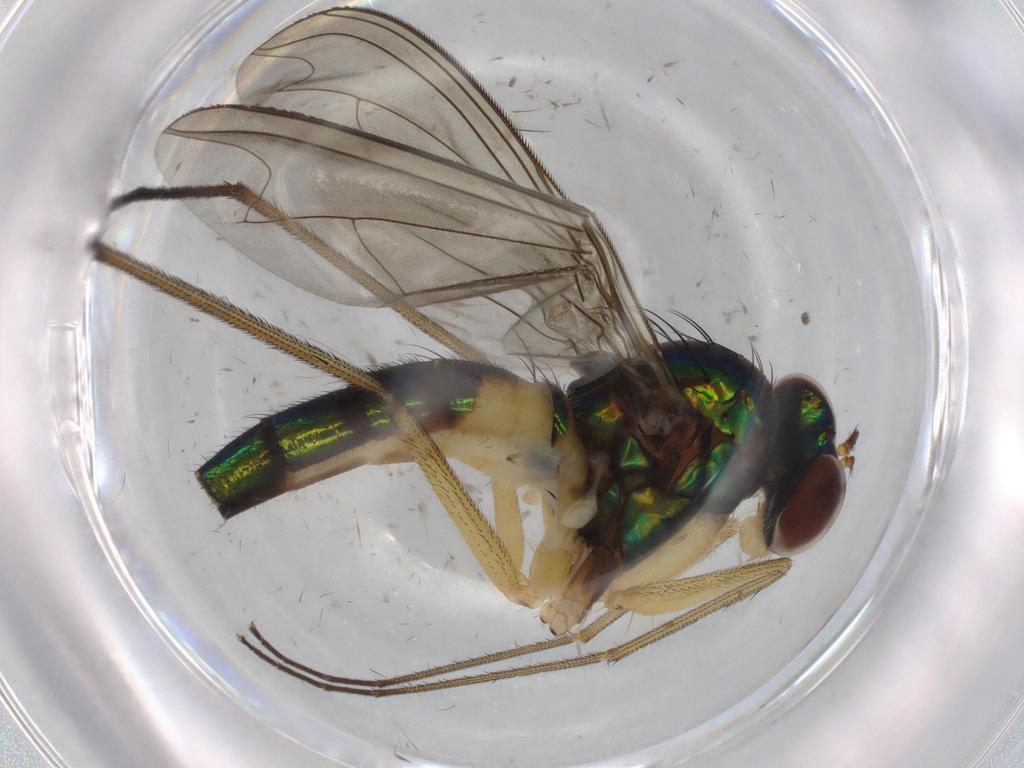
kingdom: Animalia
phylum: Arthropoda
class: Insecta
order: Diptera
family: Dolichopodidae
